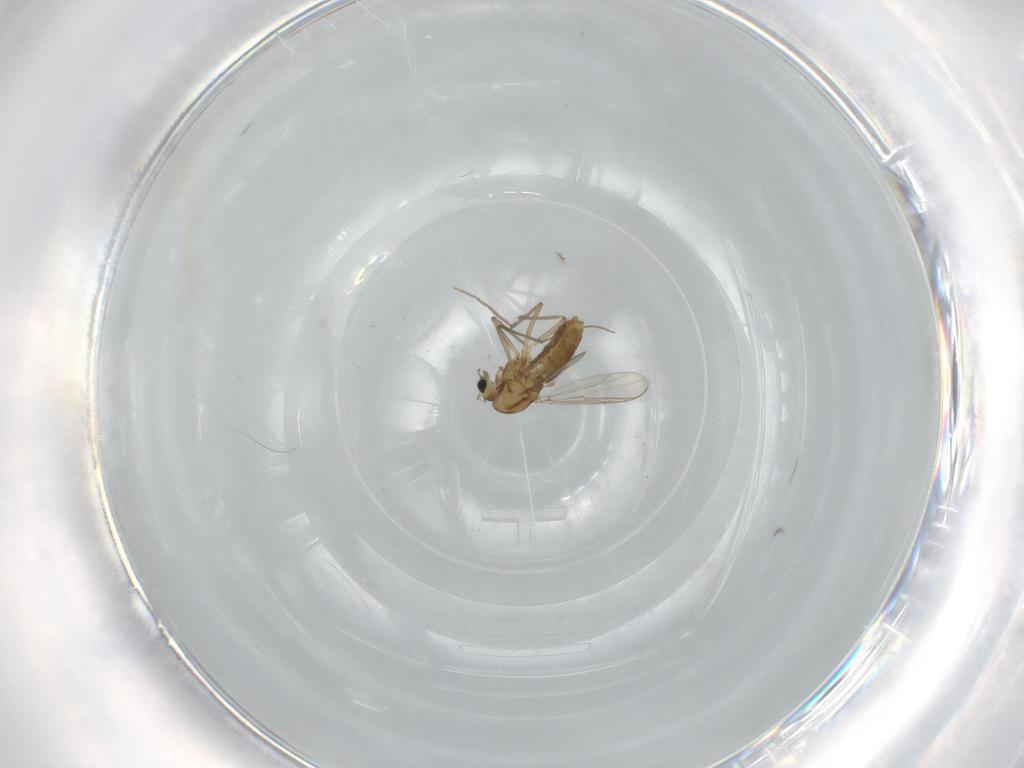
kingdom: Animalia
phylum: Arthropoda
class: Insecta
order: Diptera
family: Chironomidae
